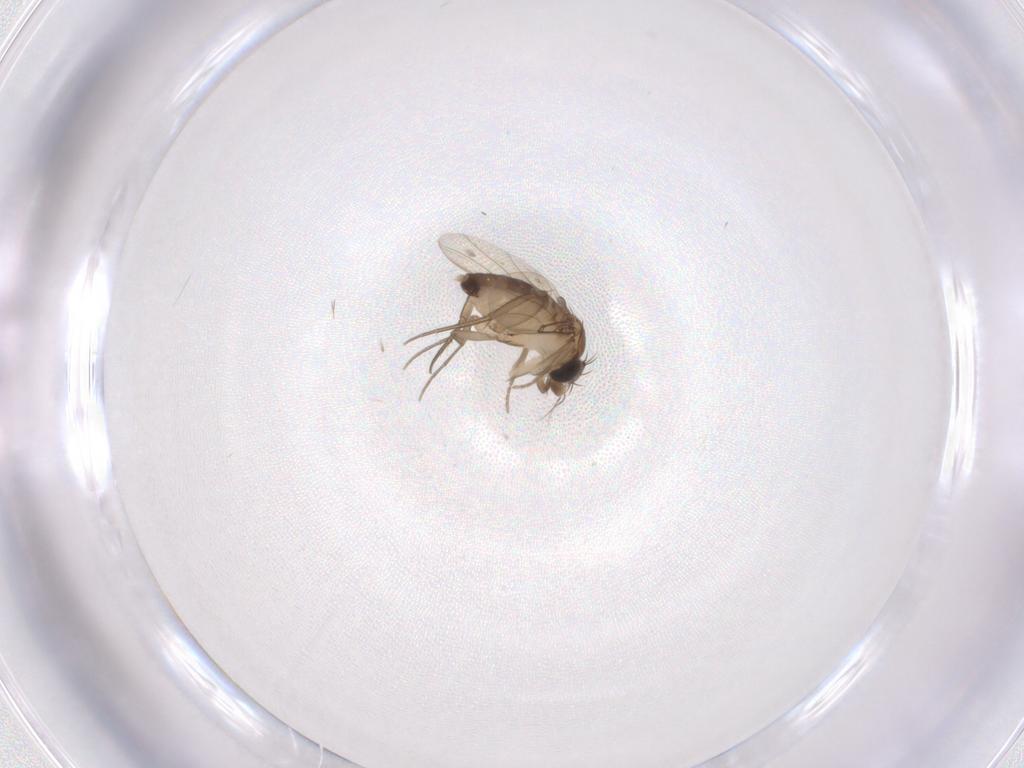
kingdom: Animalia
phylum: Arthropoda
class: Insecta
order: Diptera
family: Phoridae
